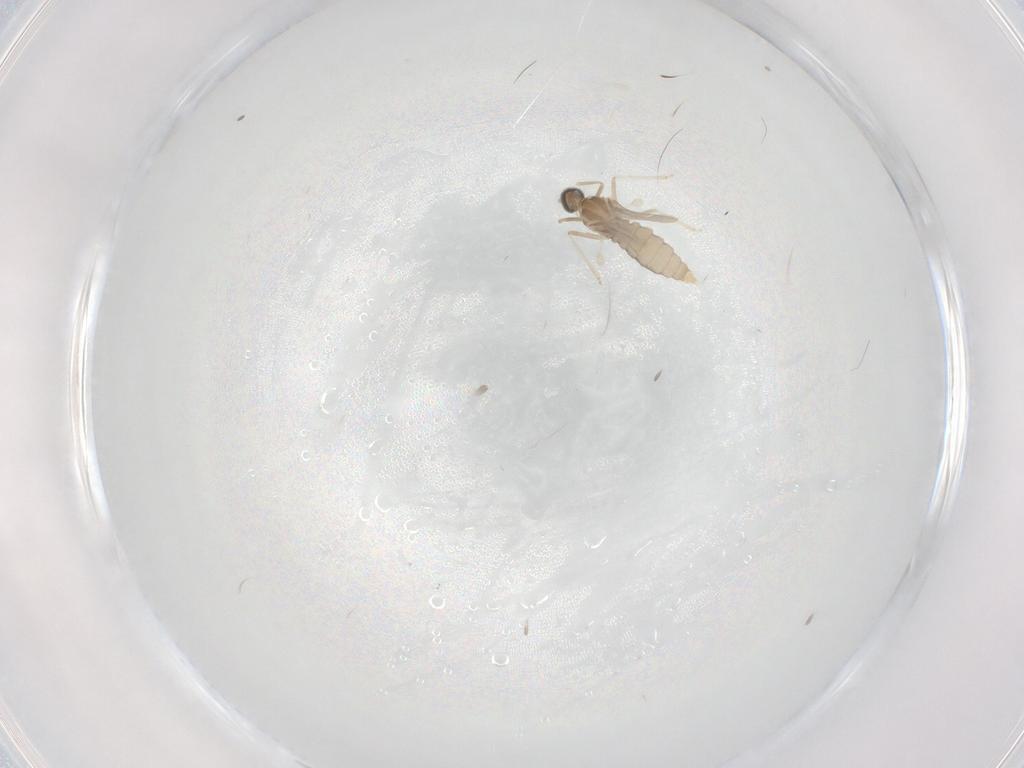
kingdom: Animalia
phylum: Arthropoda
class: Insecta
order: Diptera
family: Cecidomyiidae
